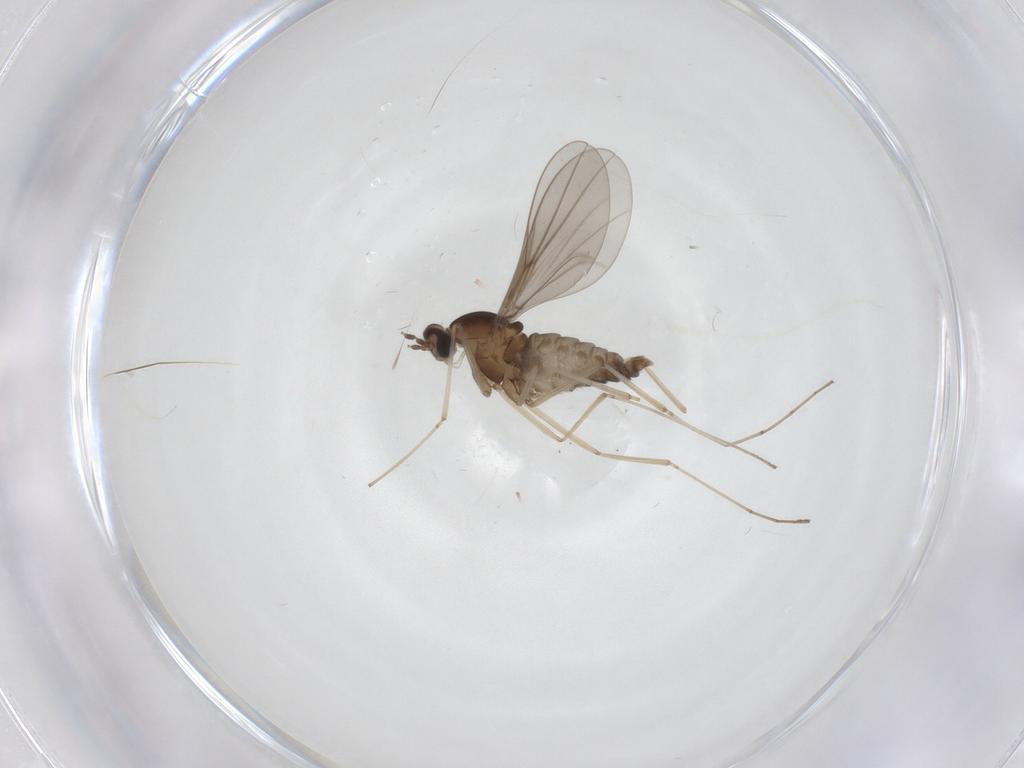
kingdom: Animalia
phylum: Arthropoda
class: Insecta
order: Diptera
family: Cecidomyiidae
